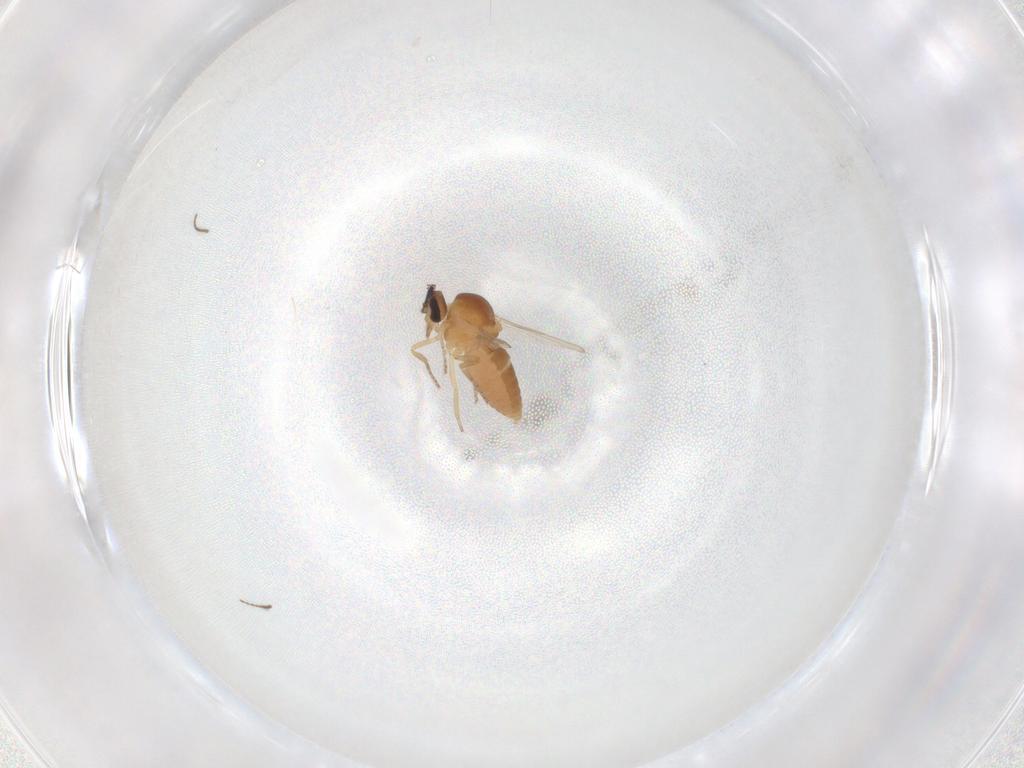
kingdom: Animalia
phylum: Arthropoda
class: Insecta
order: Diptera
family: Ceratopogonidae
